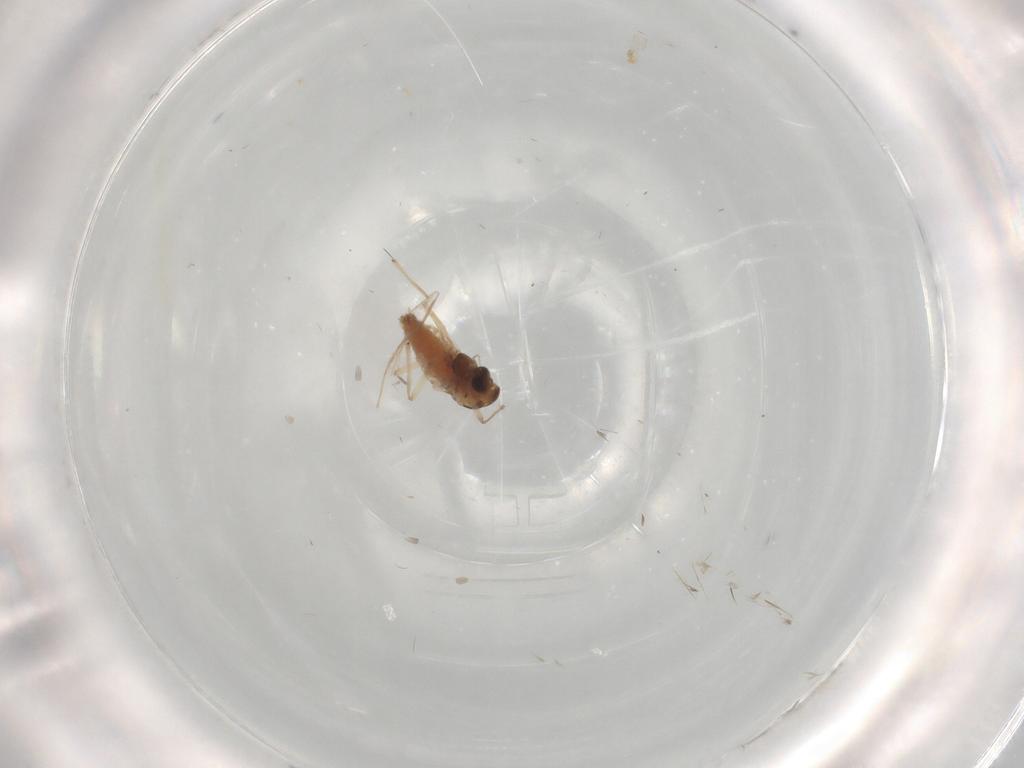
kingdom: Animalia
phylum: Arthropoda
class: Insecta
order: Diptera
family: Chironomidae
